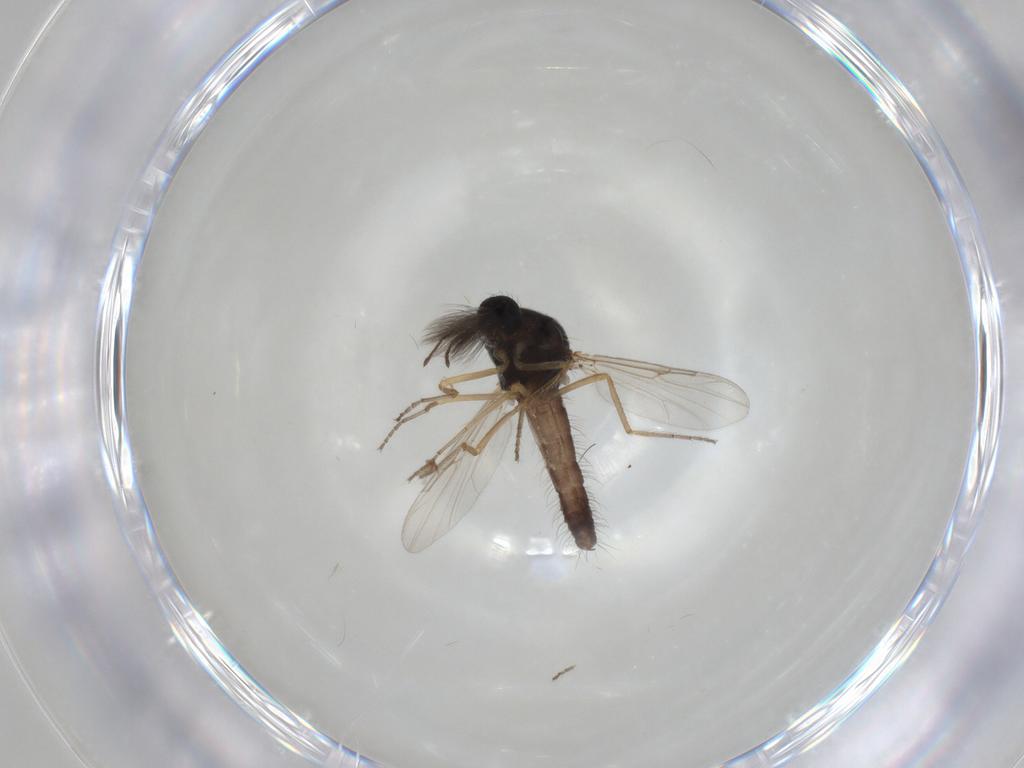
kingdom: Animalia
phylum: Arthropoda
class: Insecta
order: Diptera
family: Ceratopogonidae
